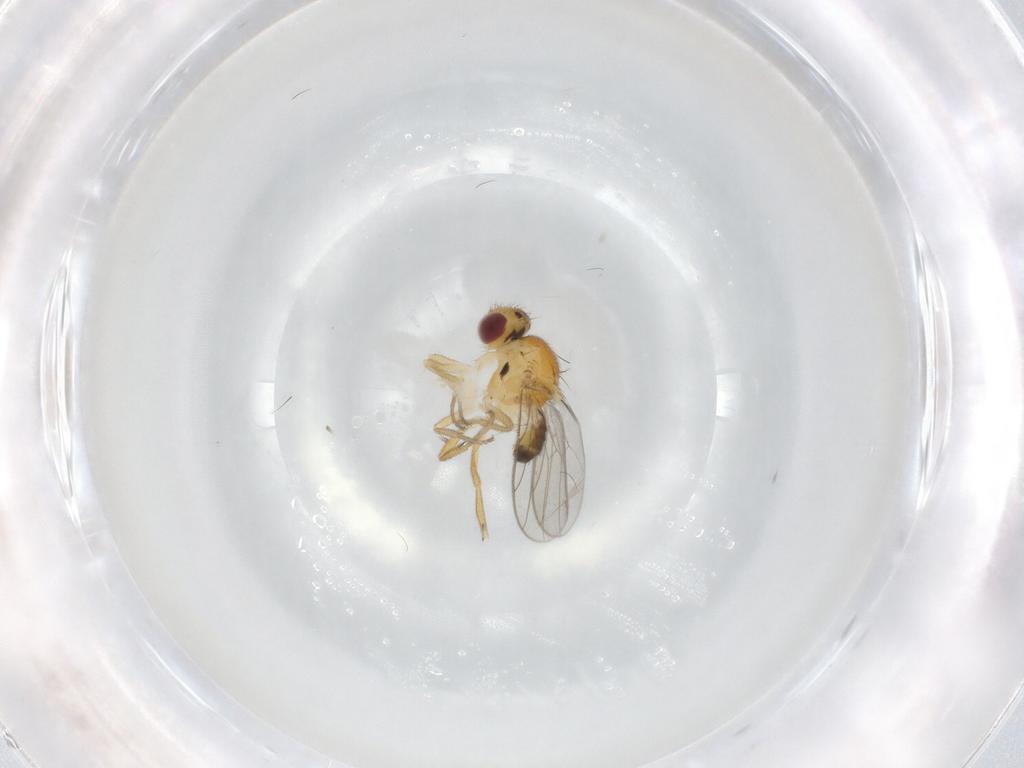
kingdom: Animalia
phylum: Arthropoda
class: Insecta
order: Diptera
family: Chloropidae
